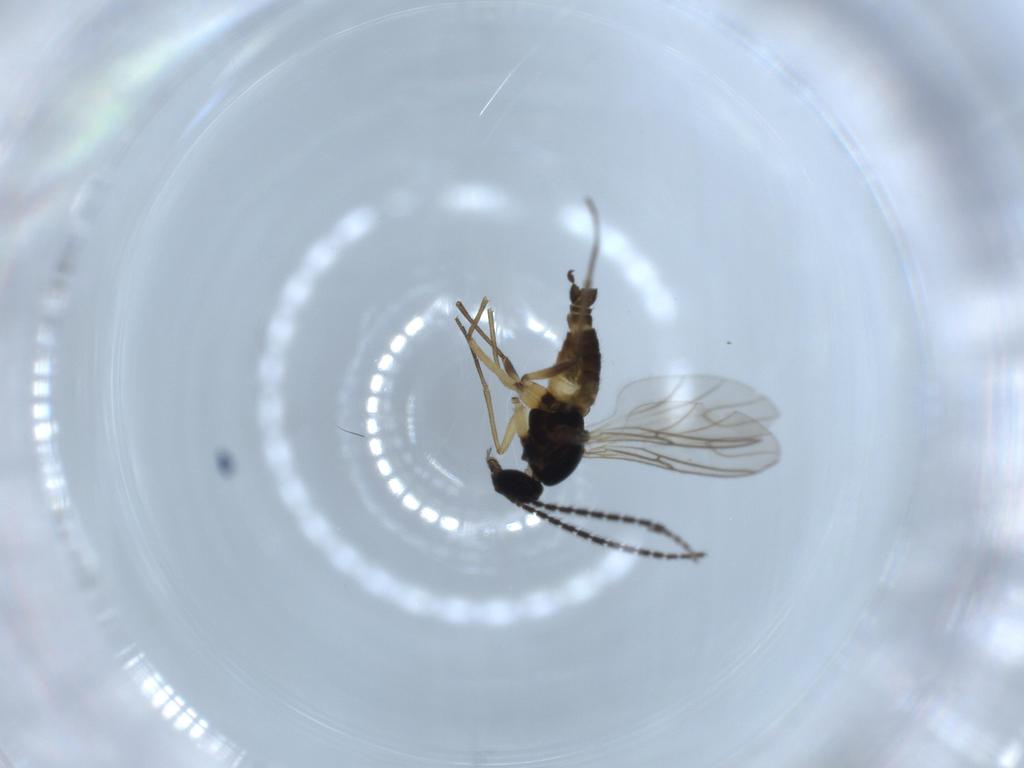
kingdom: Animalia
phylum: Arthropoda
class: Insecta
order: Diptera
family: Sciaridae
